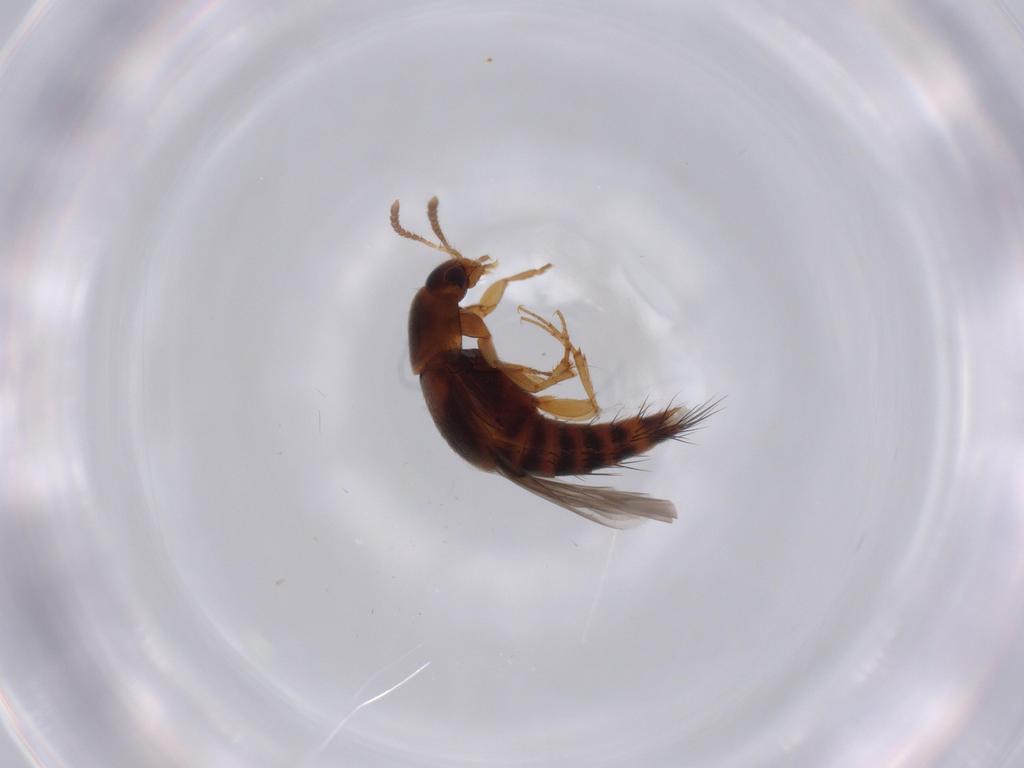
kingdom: Animalia
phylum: Arthropoda
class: Insecta
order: Coleoptera
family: Staphylinidae
